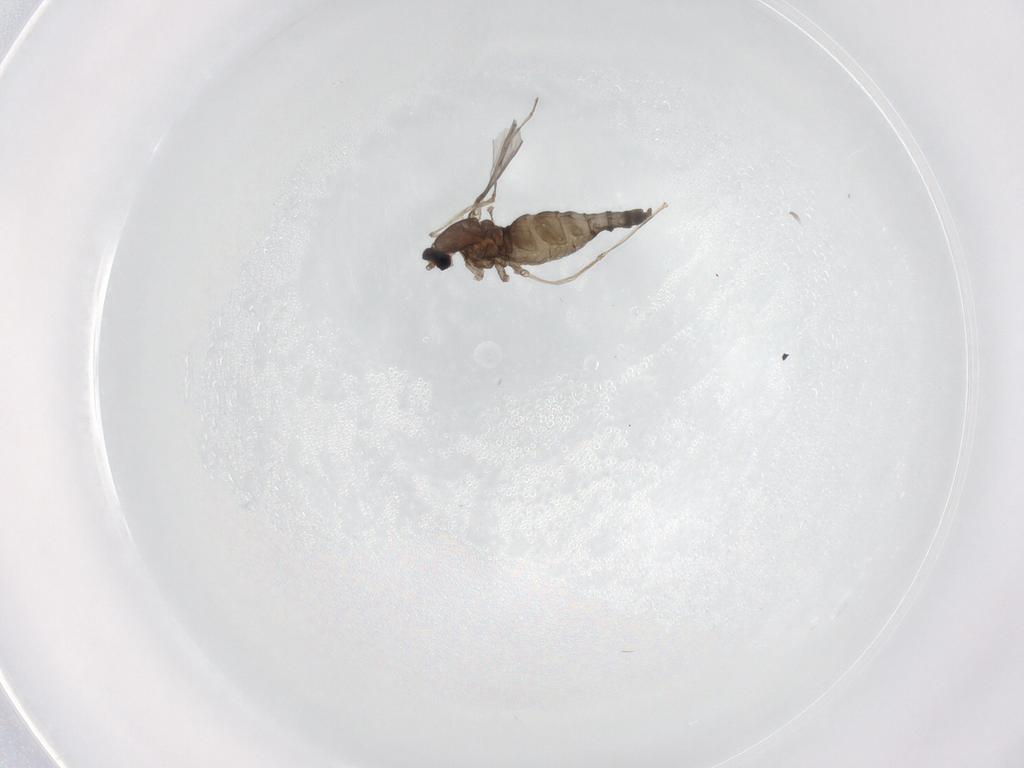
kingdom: Animalia
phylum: Arthropoda
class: Insecta
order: Diptera
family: Cecidomyiidae
